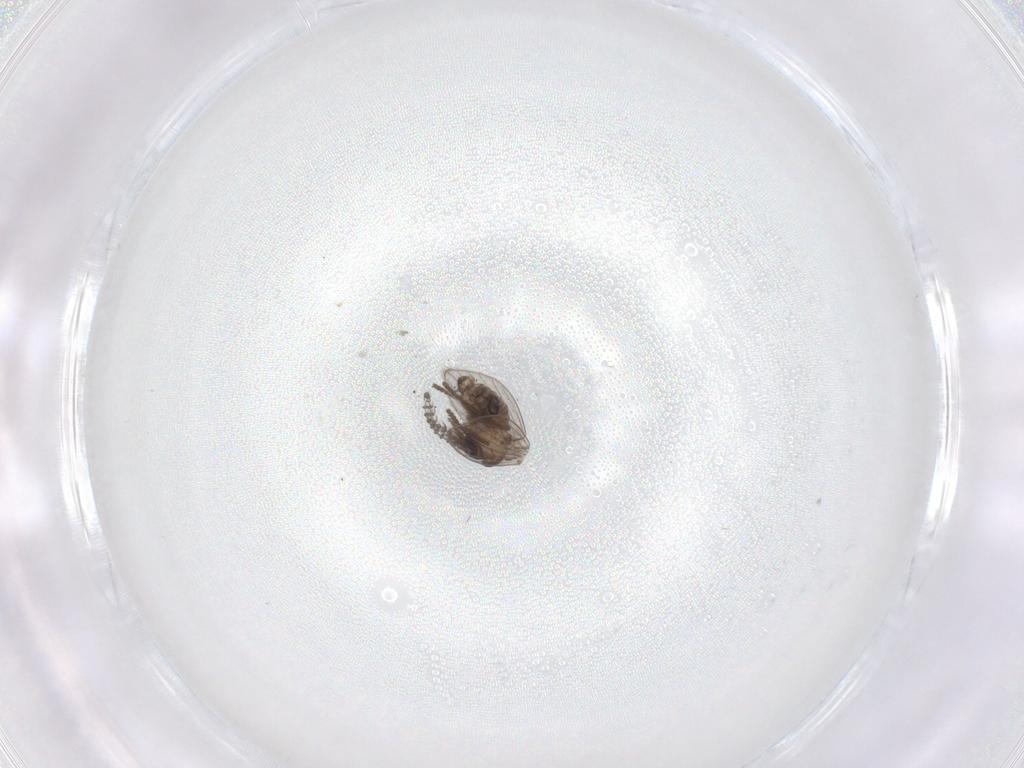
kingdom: Animalia
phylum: Arthropoda
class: Insecta
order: Diptera
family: Psychodidae
